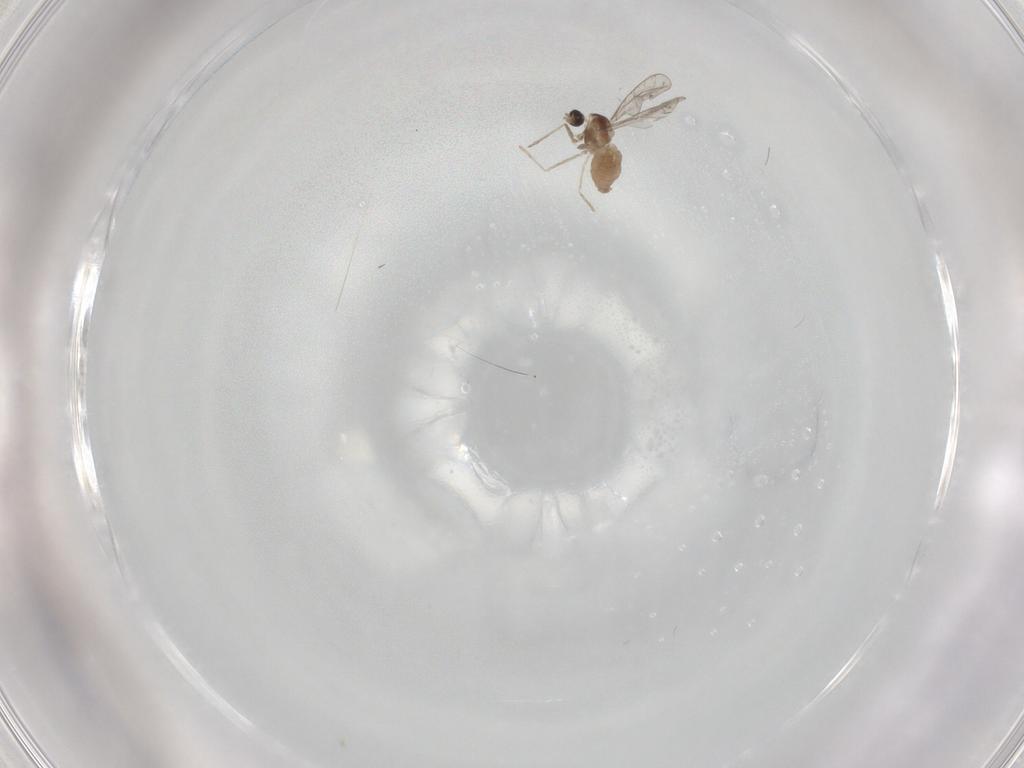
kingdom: Animalia
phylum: Arthropoda
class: Insecta
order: Diptera
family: Cecidomyiidae
